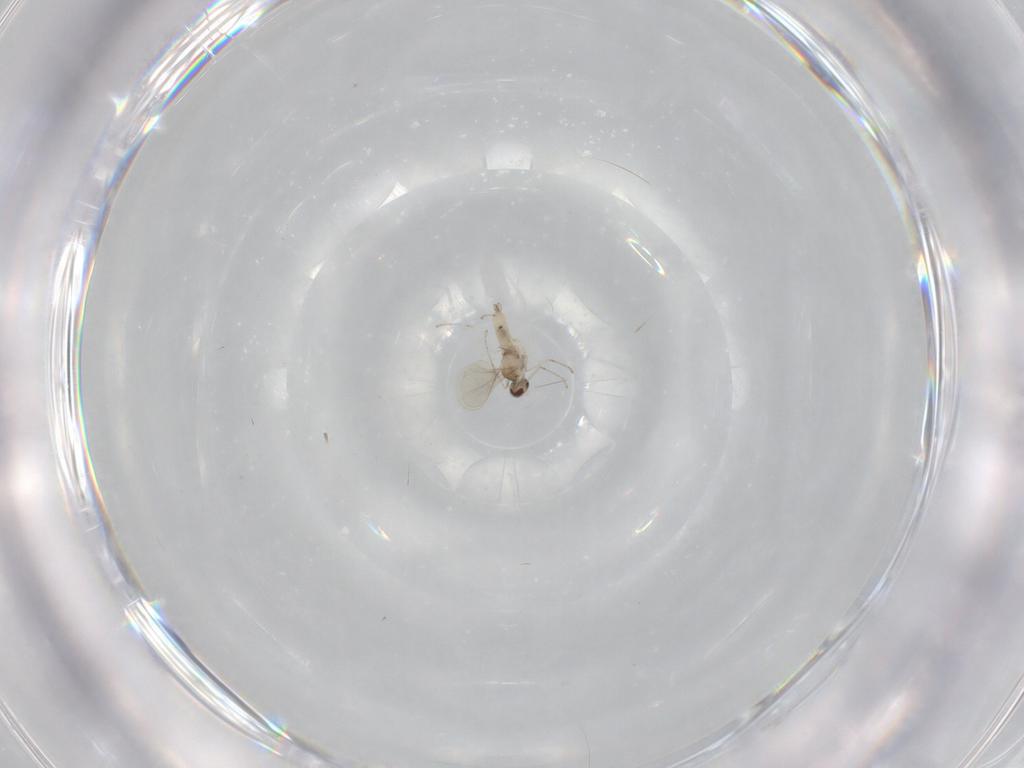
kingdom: Animalia
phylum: Arthropoda
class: Insecta
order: Diptera
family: Cecidomyiidae
